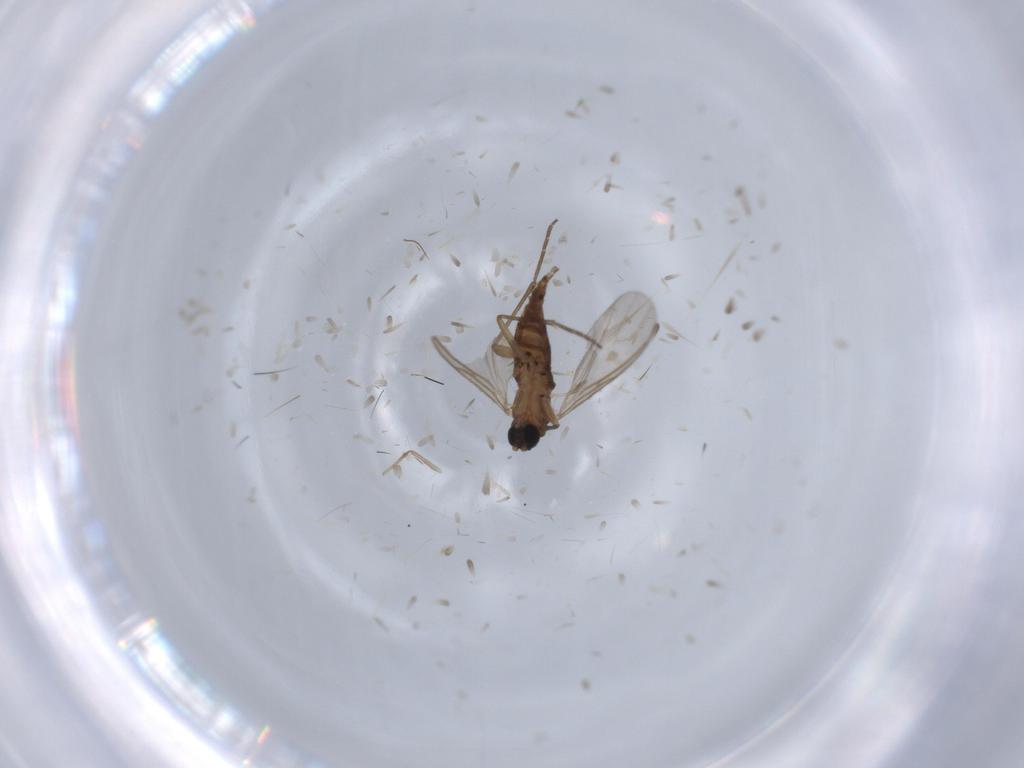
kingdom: Animalia
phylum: Arthropoda
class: Insecta
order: Diptera
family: Sciaridae
